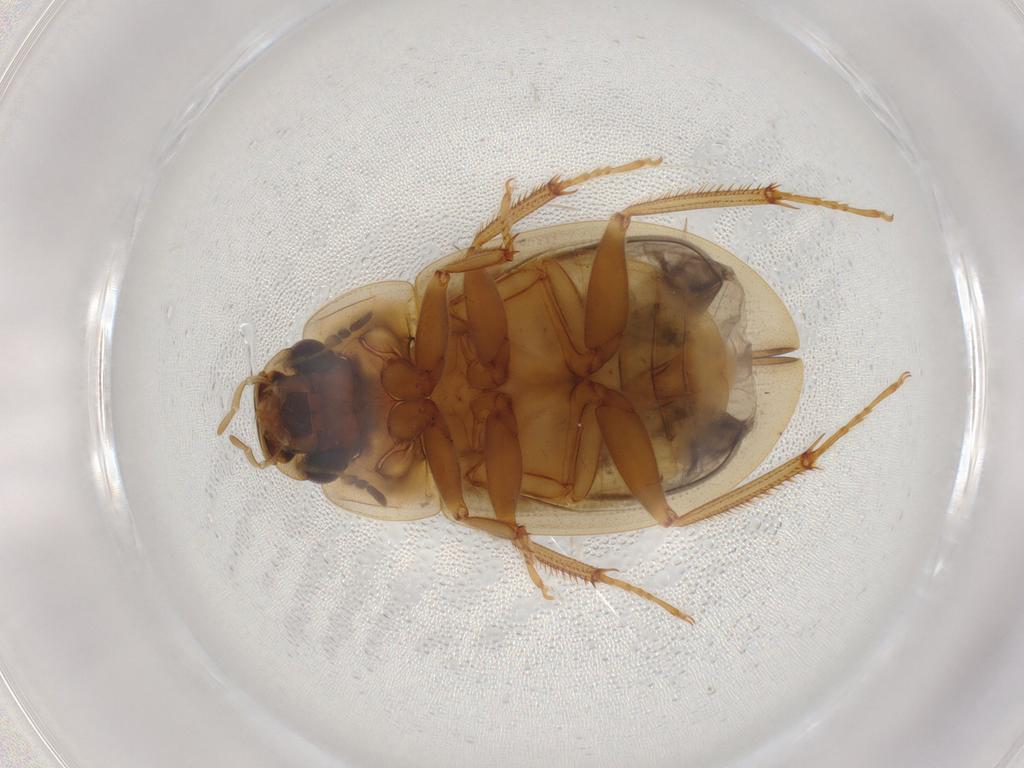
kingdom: Animalia
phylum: Arthropoda
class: Insecta
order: Coleoptera
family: Hydrophilidae
